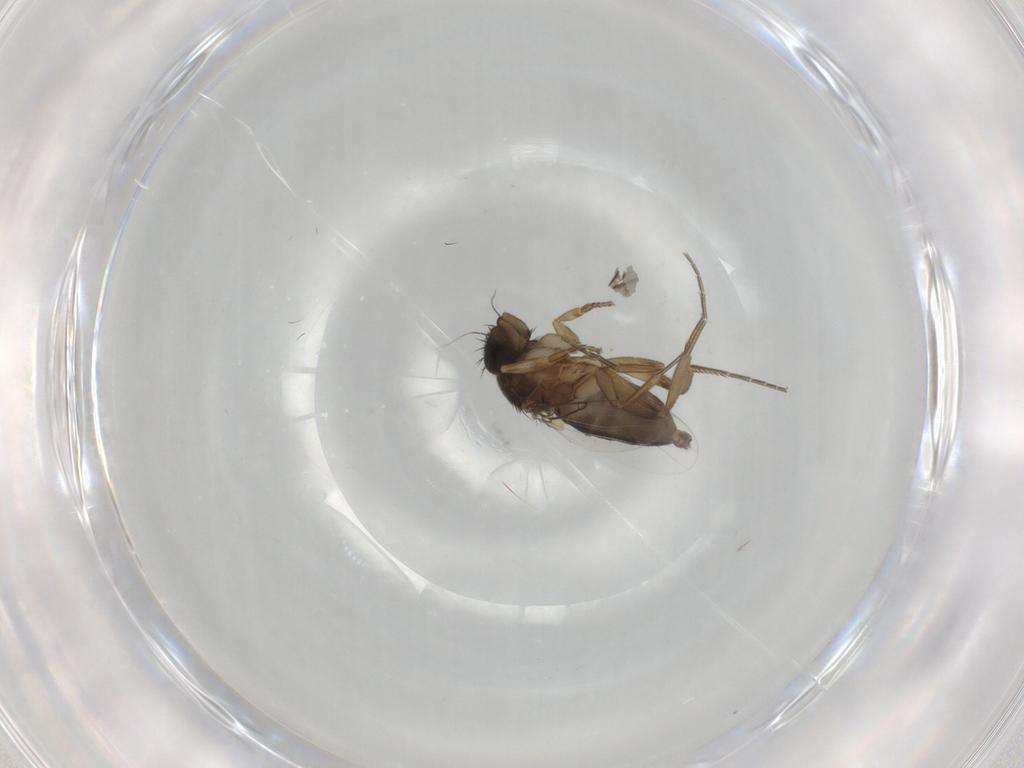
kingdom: Animalia
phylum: Arthropoda
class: Insecta
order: Diptera
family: Phoridae
